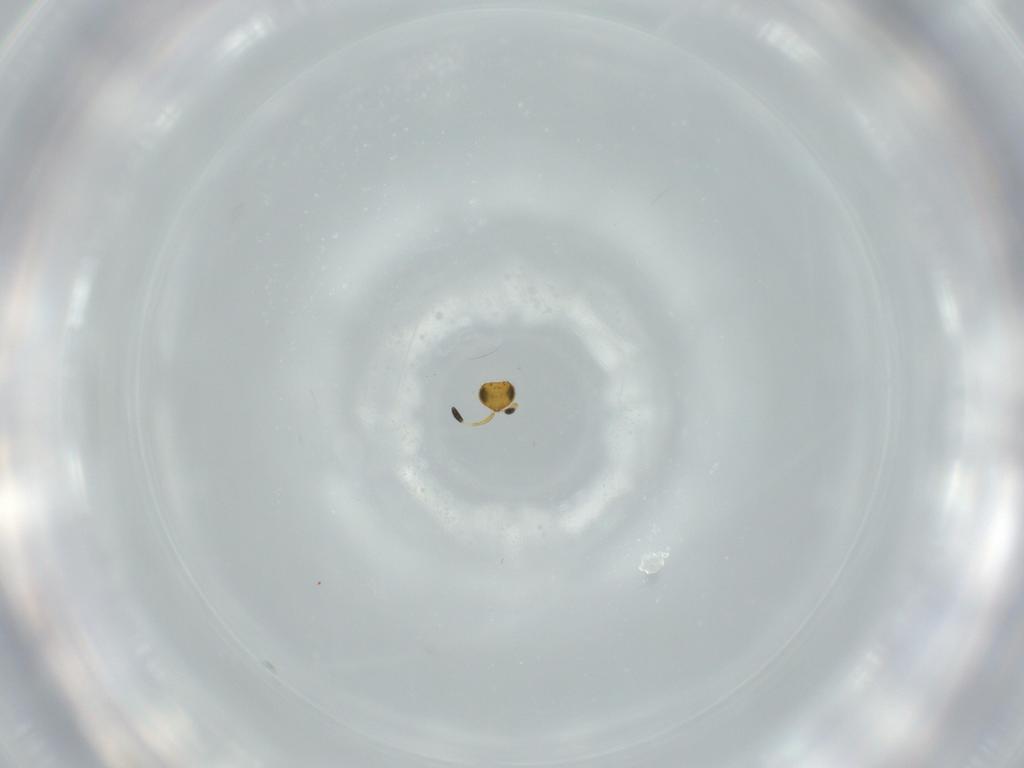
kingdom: Animalia
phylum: Arthropoda
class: Insecta
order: Hymenoptera
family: Scelionidae
